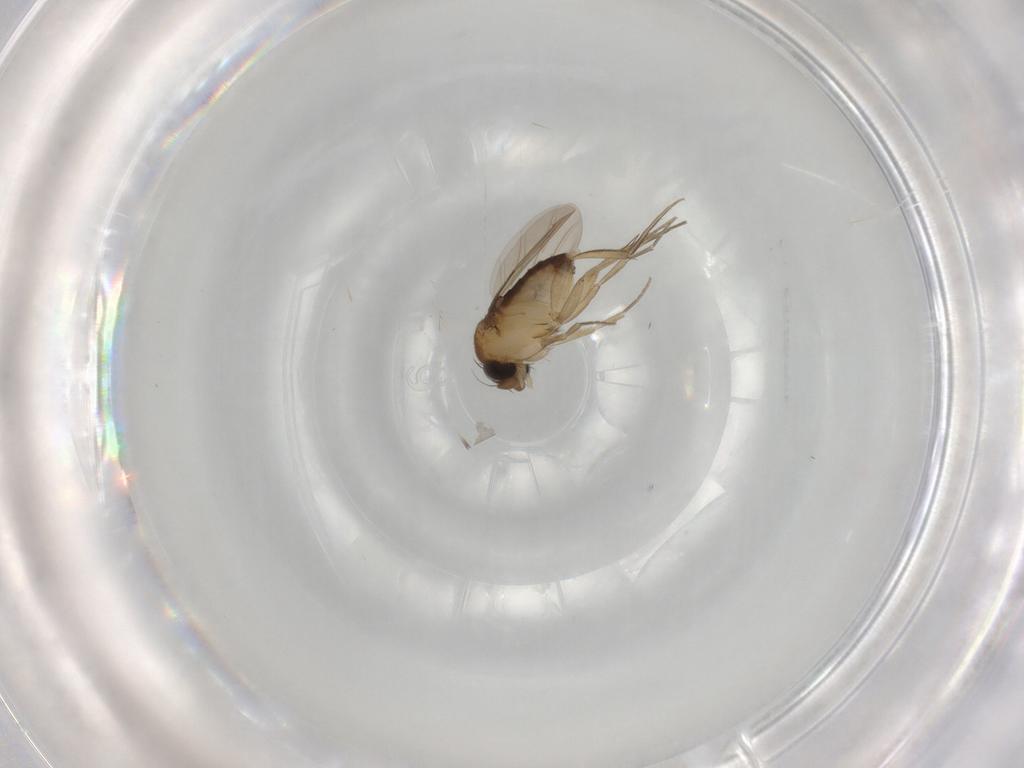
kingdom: Animalia
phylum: Arthropoda
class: Insecta
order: Diptera
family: Phoridae
